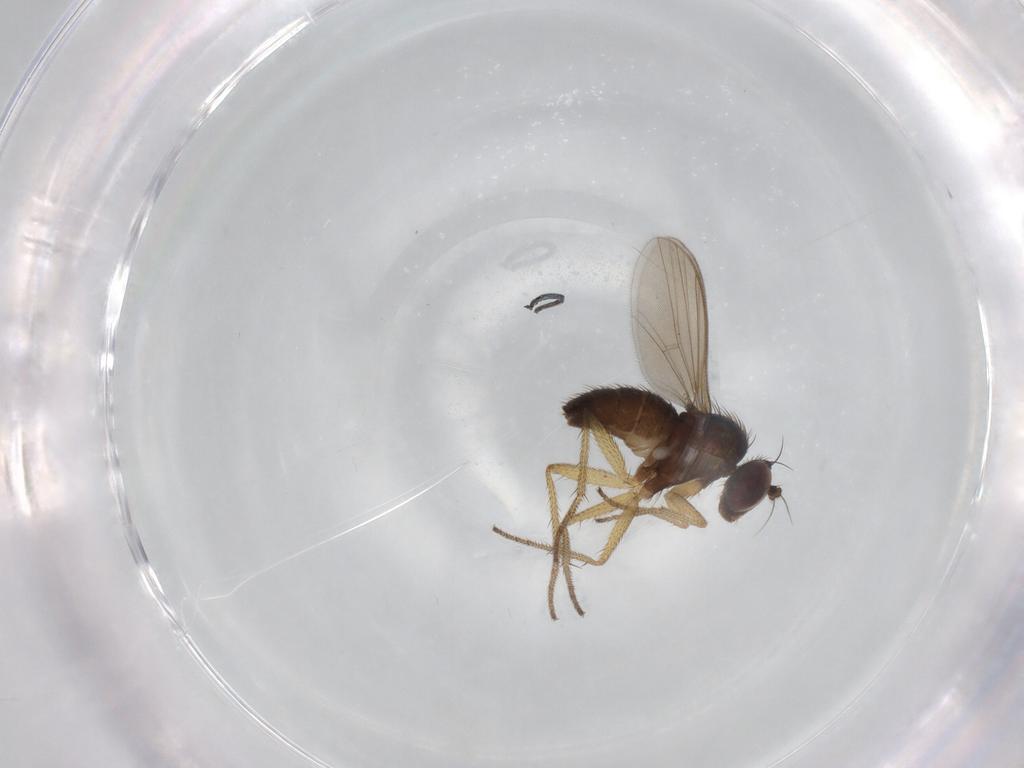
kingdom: Animalia
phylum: Arthropoda
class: Insecta
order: Diptera
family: Dolichopodidae
